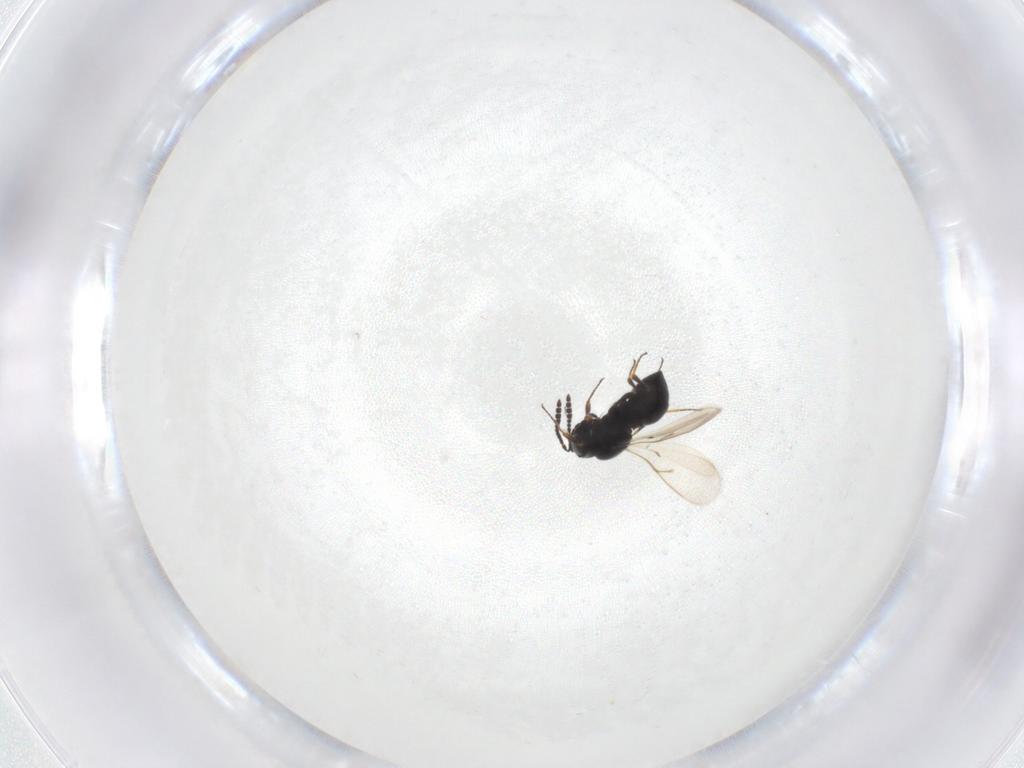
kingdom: Animalia
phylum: Arthropoda
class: Insecta
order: Hymenoptera
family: Scelionidae
